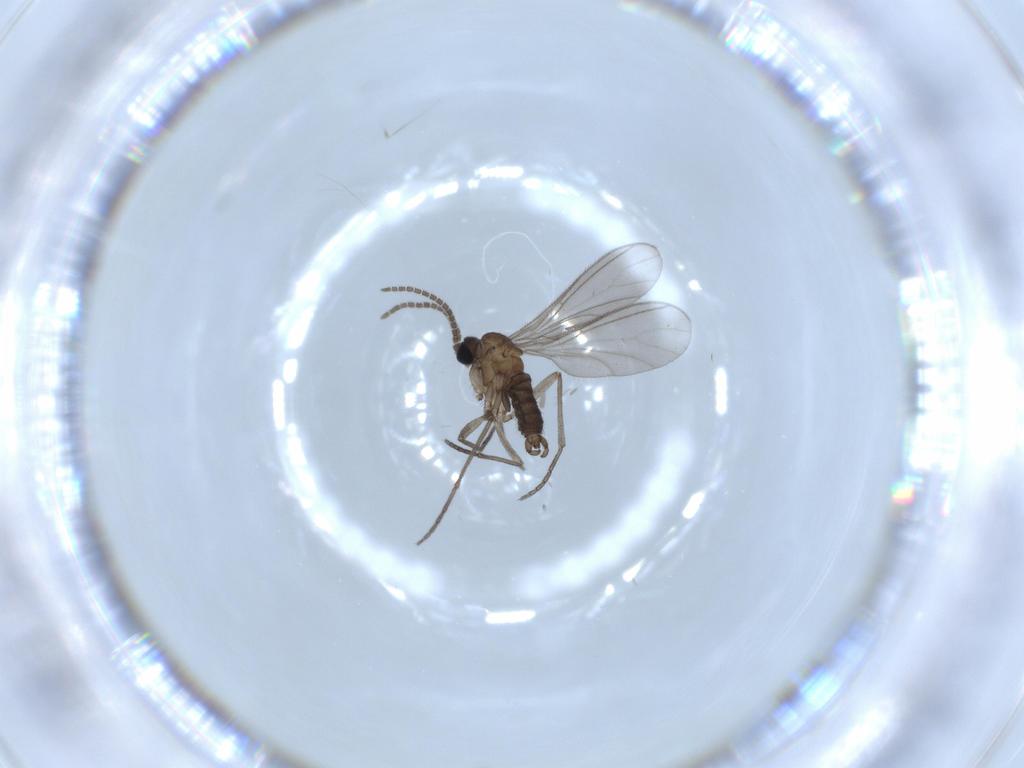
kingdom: Animalia
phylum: Arthropoda
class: Insecta
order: Diptera
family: Sciaridae
